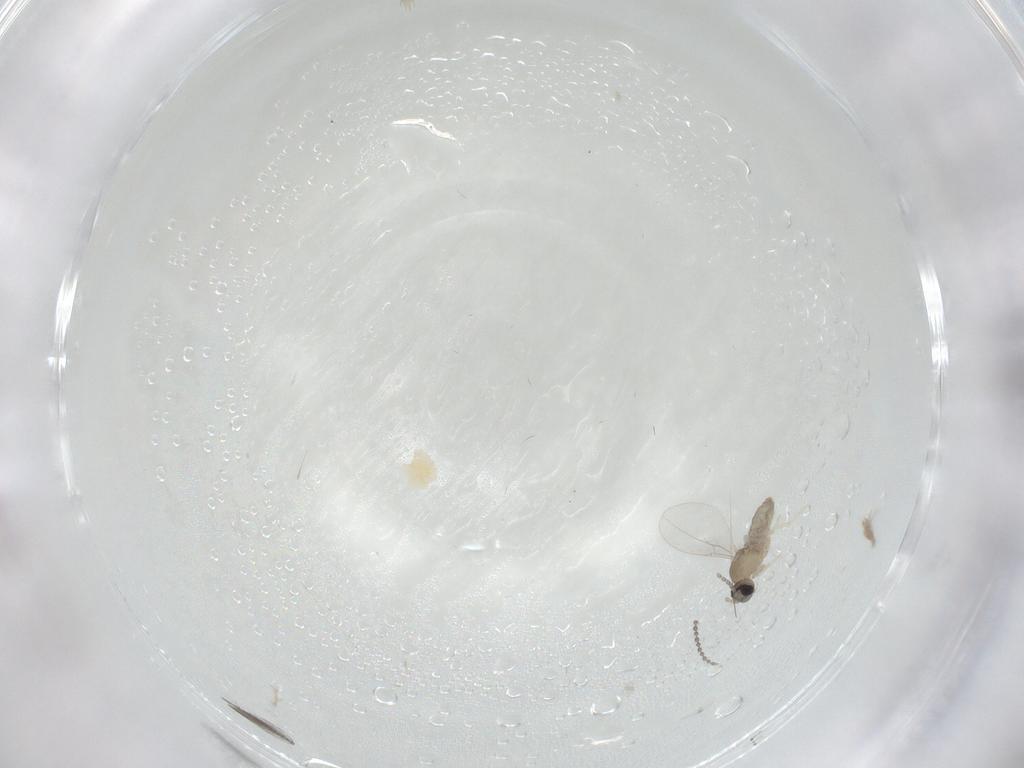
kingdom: Animalia
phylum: Arthropoda
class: Insecta
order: Diptera
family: Cecidomyiidae
